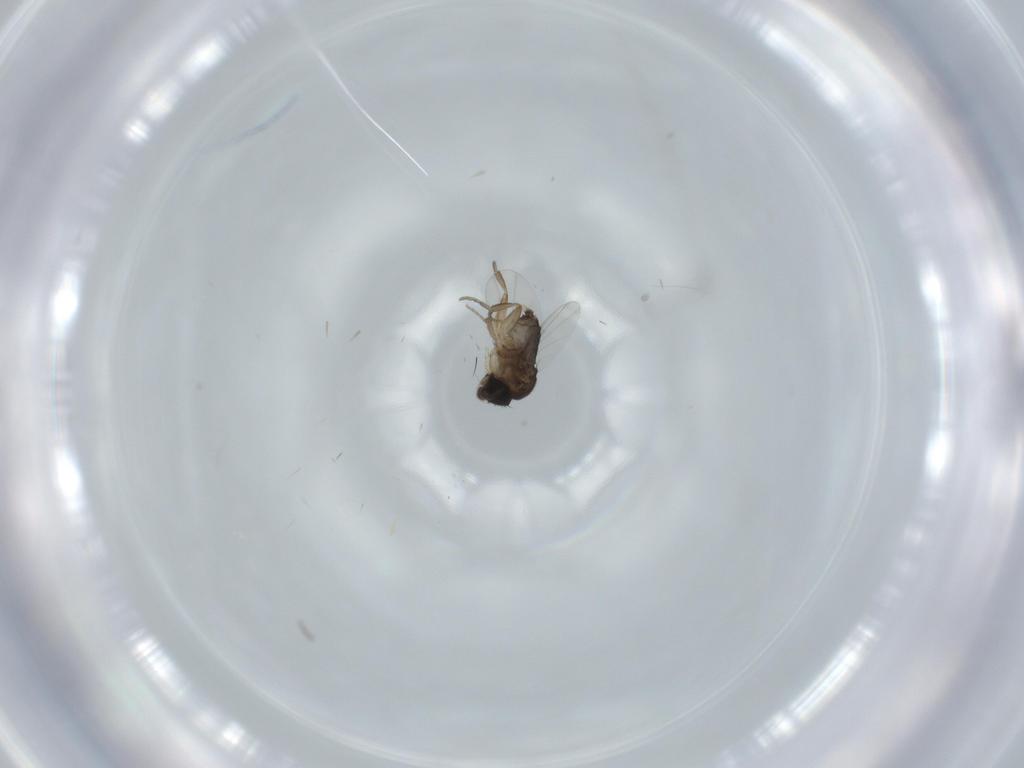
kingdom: Animalia
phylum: Arthropoda
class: Insecta
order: Diptera
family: Phoridae
